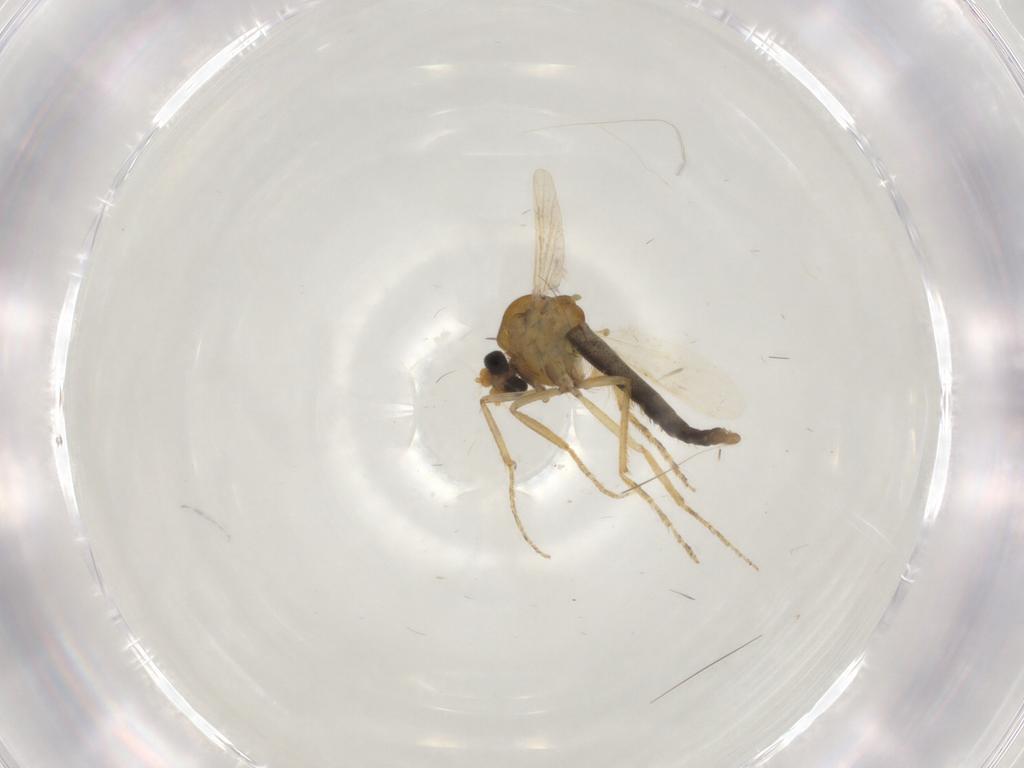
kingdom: Animalia
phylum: Arthropoda
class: Insecta
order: Diptera
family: Ceratopogonidae
